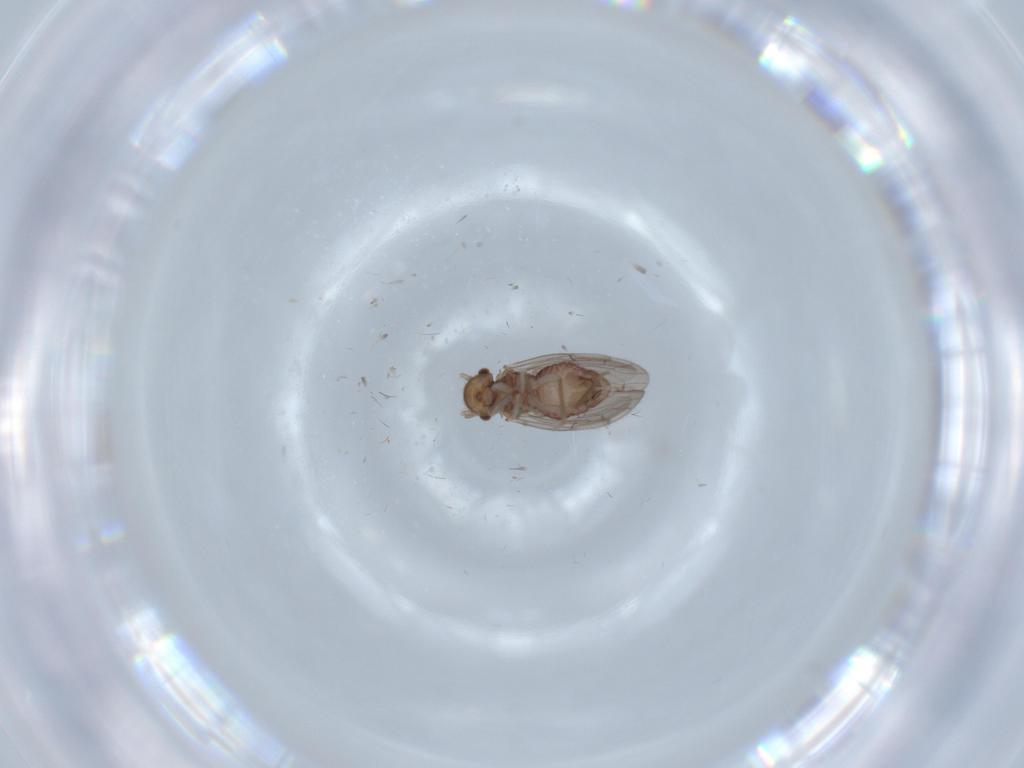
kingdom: Animalia
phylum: Arthropoda
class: Insecta
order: Psocodea
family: Ectopsocidae
